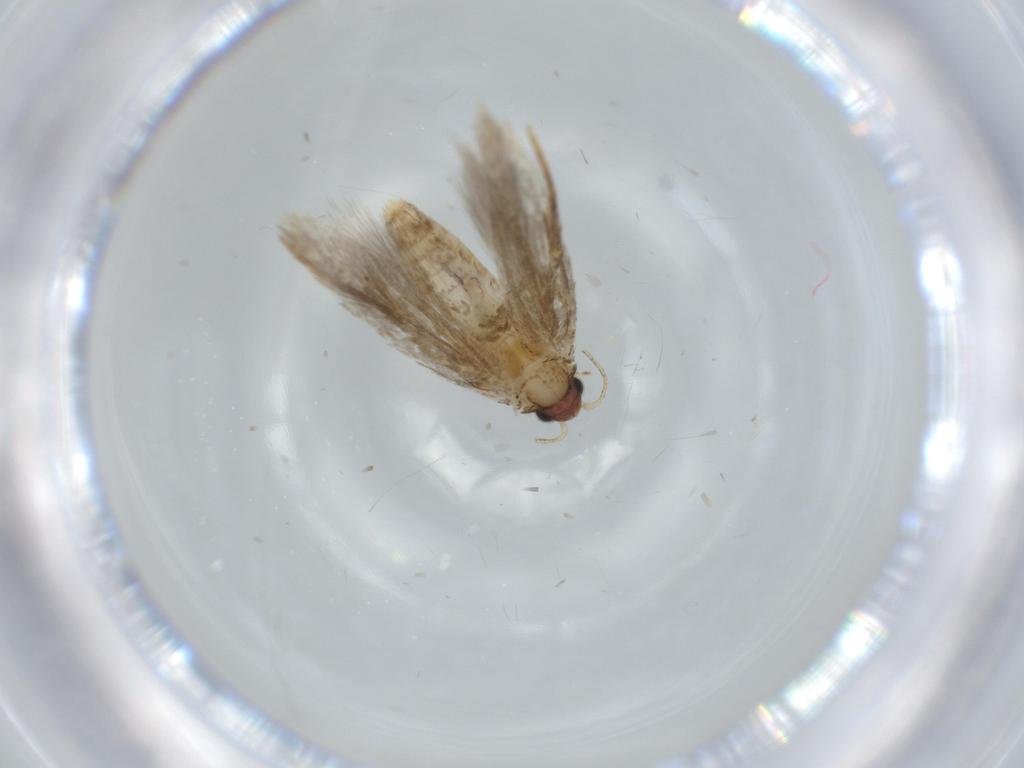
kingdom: Animalia
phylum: Arthropoda
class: Insecta
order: Lepidoptera
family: Tineidae
